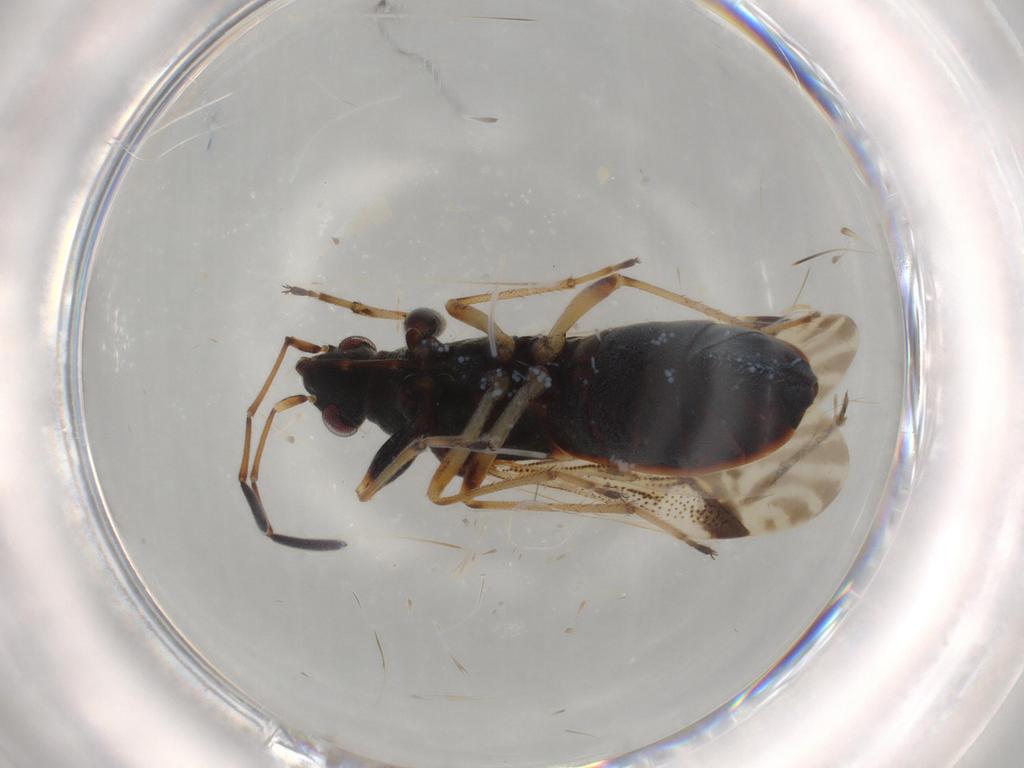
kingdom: Animalia
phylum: Arthropoda
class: Insecta
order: Hemiptera
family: Rhyparochromidae
